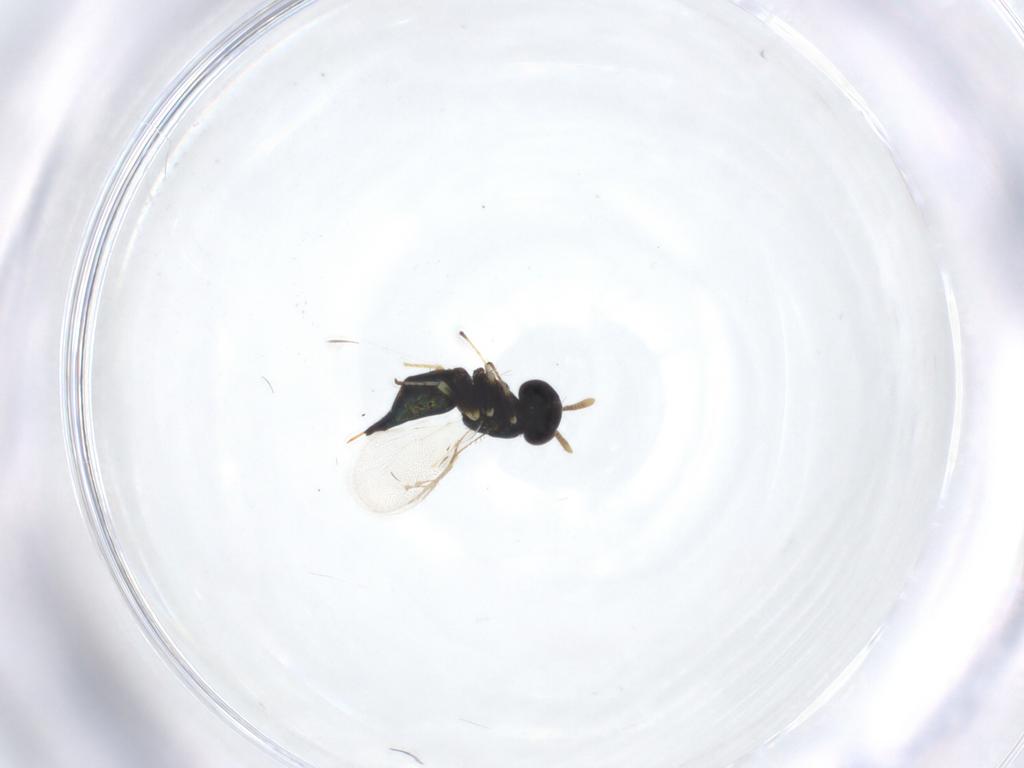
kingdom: Animalia
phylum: Arthropoda
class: Insecta
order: Hymenoptera
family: Pteromalidae
